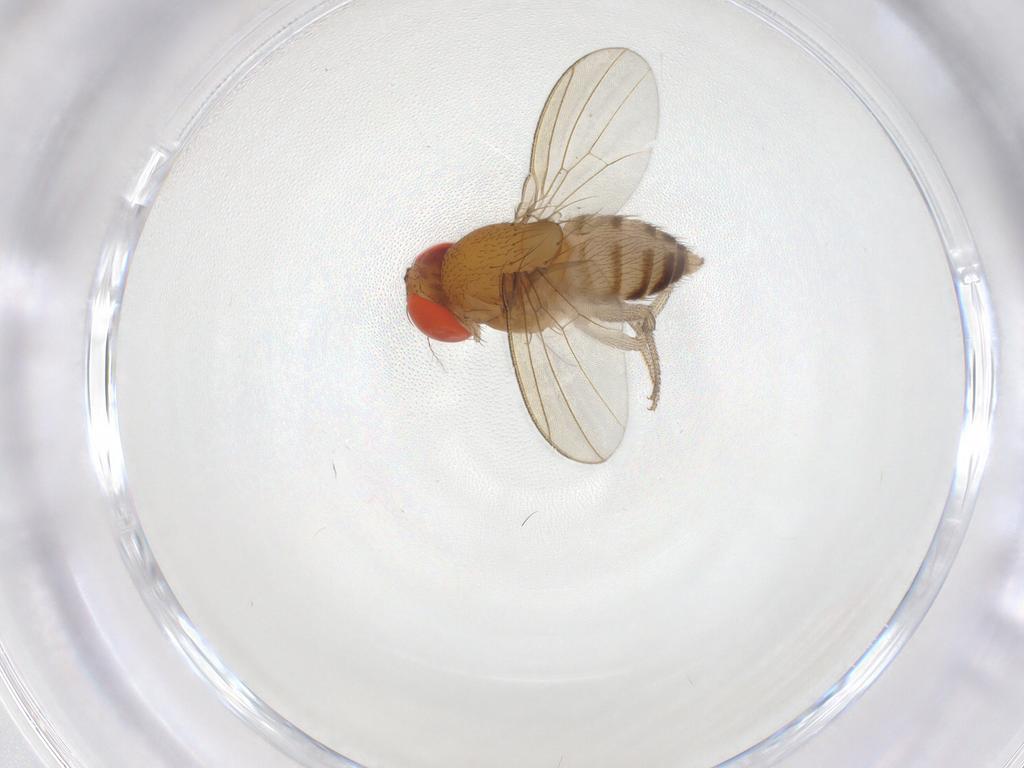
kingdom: Animalia
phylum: Arthropoda
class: Insecta
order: Diptera
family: Drosophilidae
